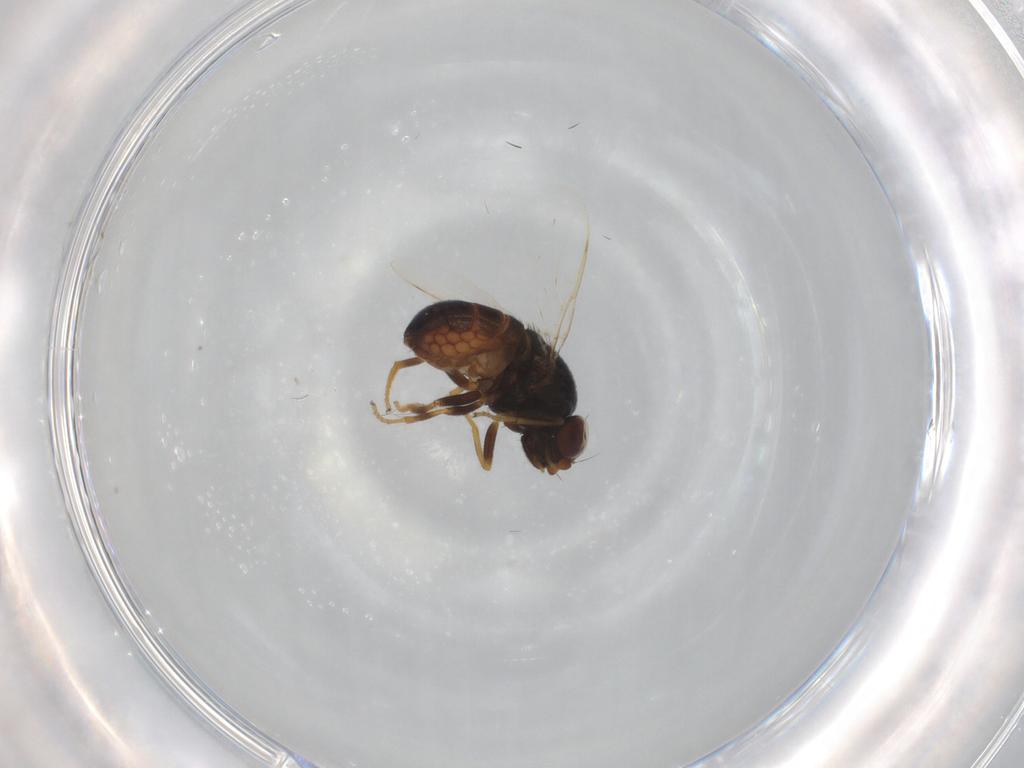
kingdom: Animalia
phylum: Arthropoda
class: Insecta
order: Diptera
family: Chloropidae
